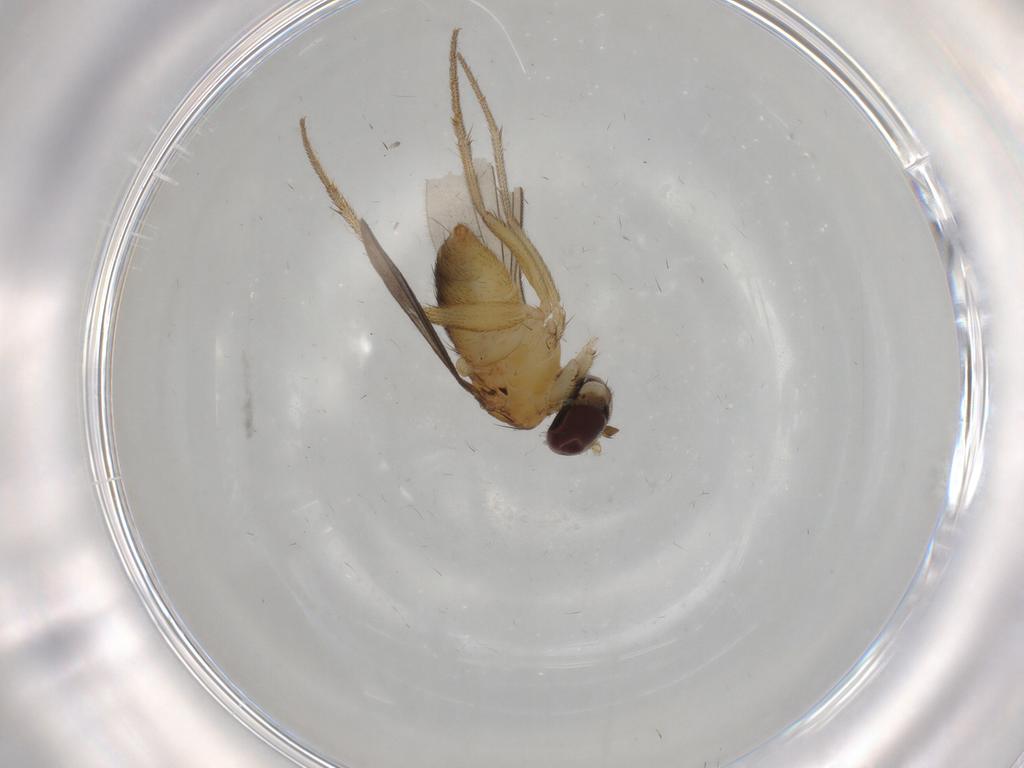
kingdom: Animalia
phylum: Arthropoda
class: Insecta
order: Diptera
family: Dolichopodidae
